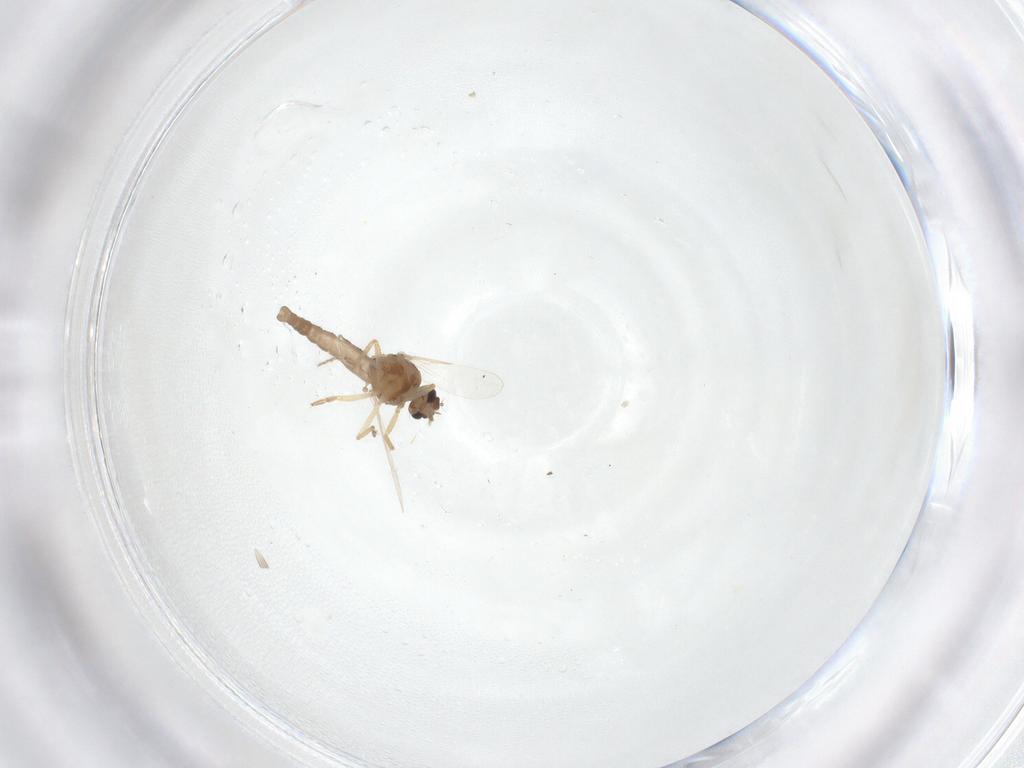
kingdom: Animalia
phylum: Arthropoda
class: Insecta
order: Diptera
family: Ceratopogonidae
